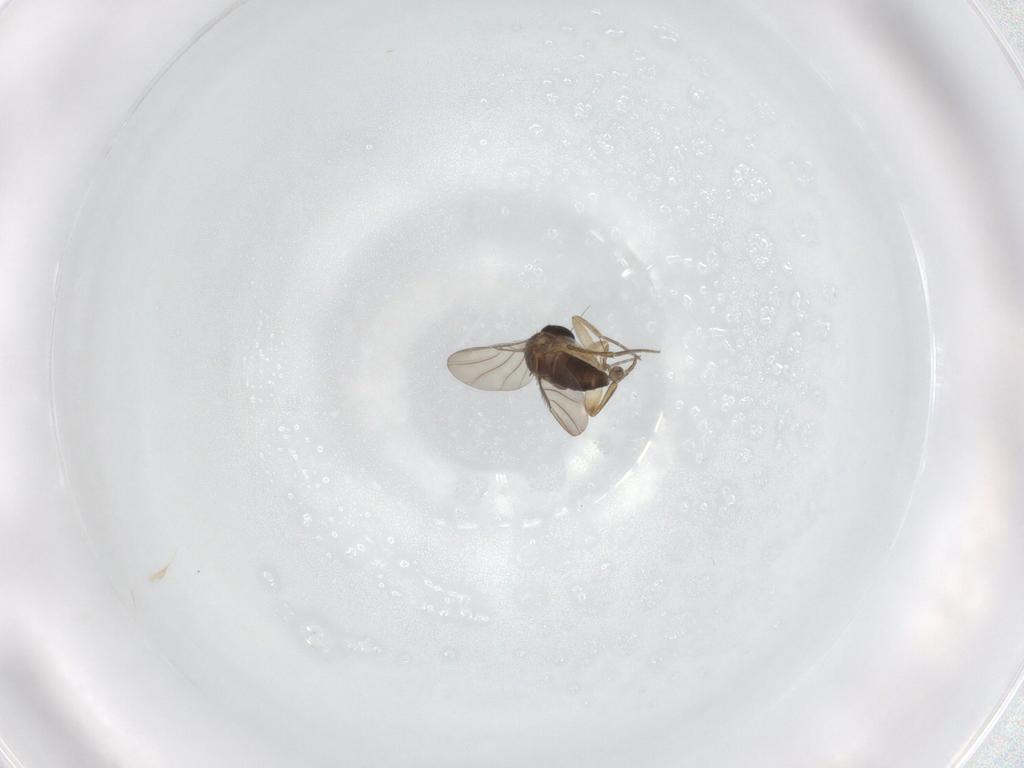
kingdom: Animalia
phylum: Arthropoda
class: Insecta
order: Diptera
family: Phoridae
